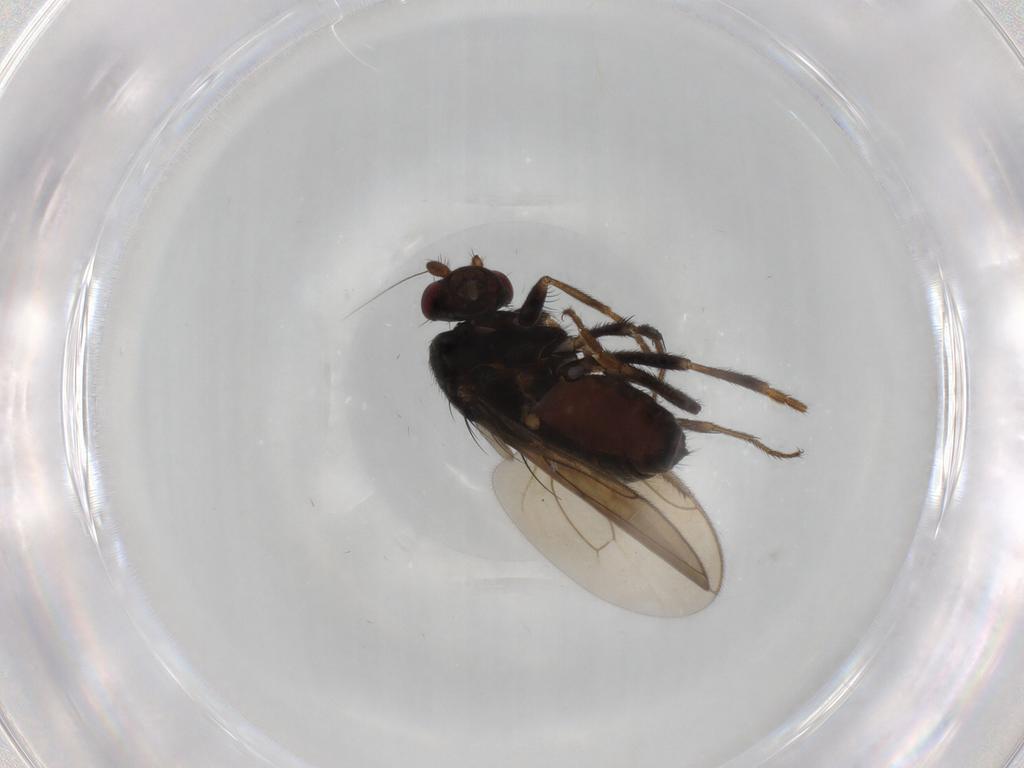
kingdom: Animalia
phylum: Arthropoda
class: Insecta
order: Diptera
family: Sphaeroceridae
